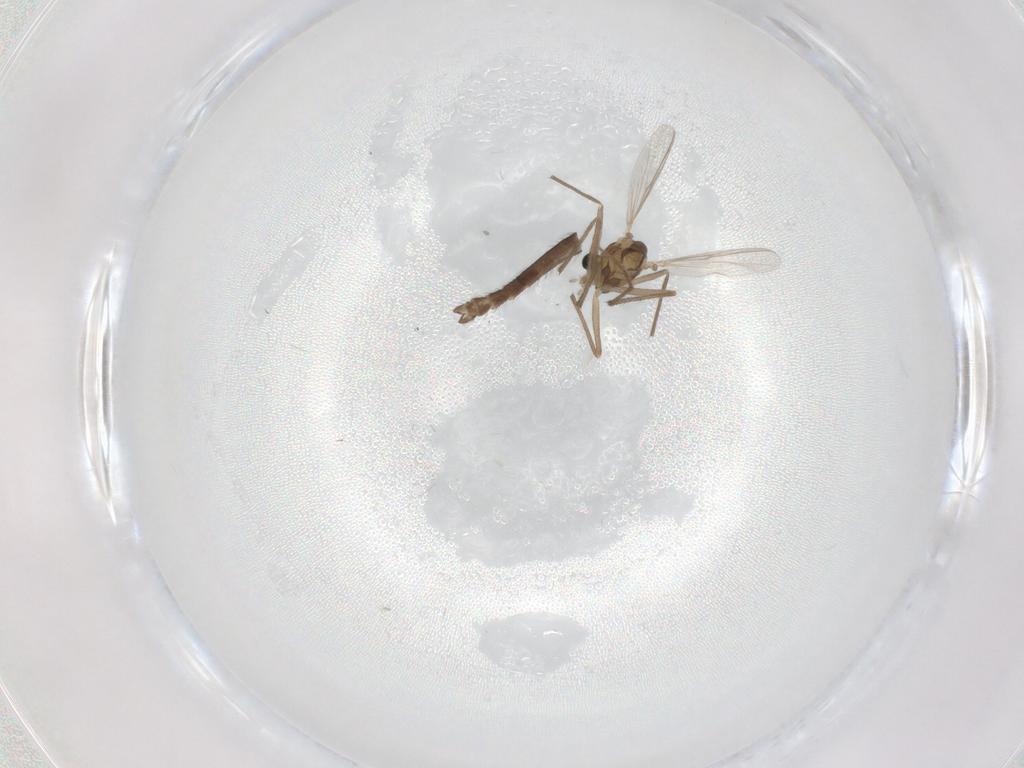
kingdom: Animalia
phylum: Arthropoda
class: Insecta
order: Diptera
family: Chironomidae
